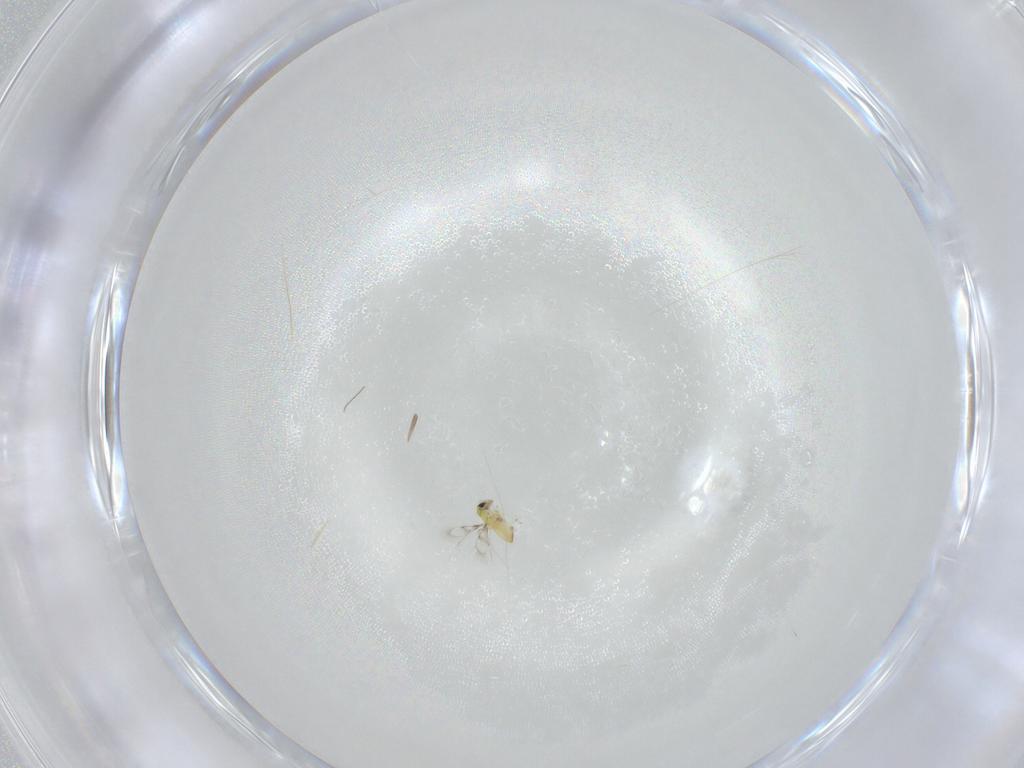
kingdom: Animalia
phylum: Arthropoda
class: Insecta
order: Hymenoptera
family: Trichogrammatidae
